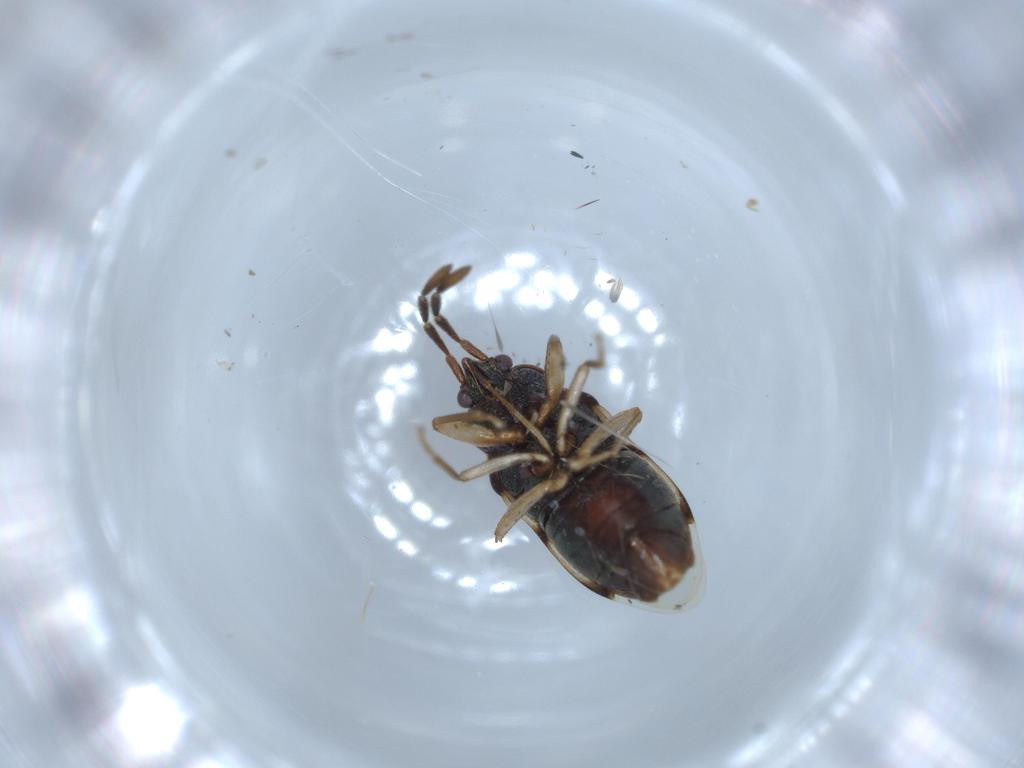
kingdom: Animalia
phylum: Arthropoda
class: Insecta
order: Hemiptera
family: Rhyparochromidae
